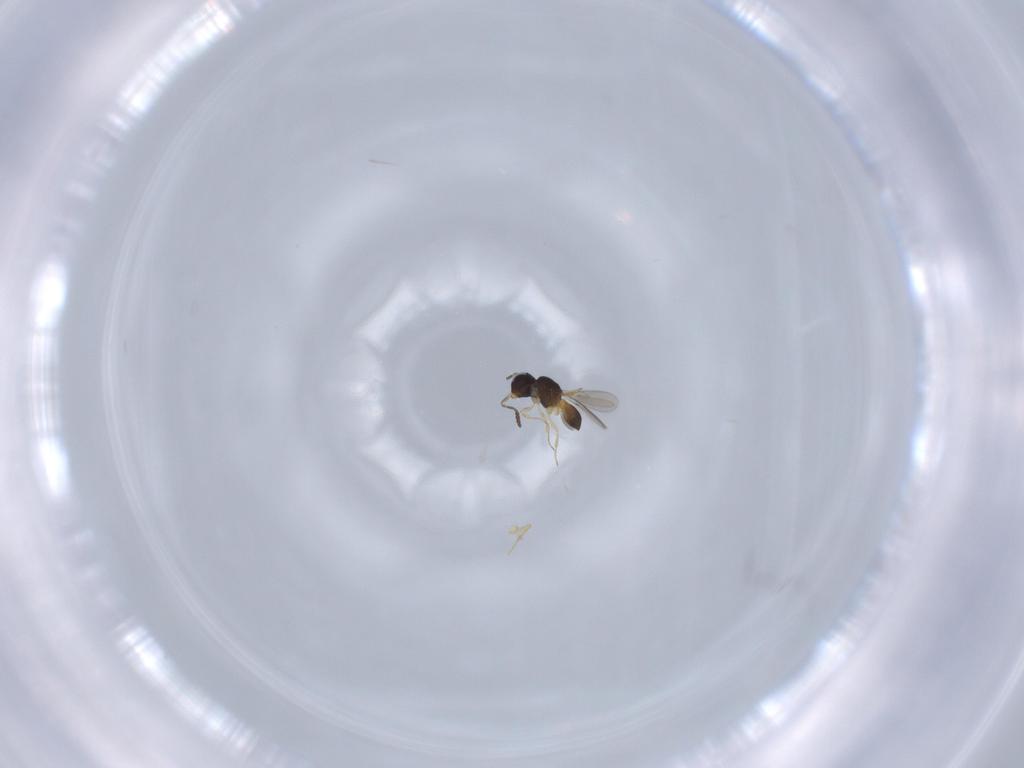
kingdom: Animalia
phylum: Arthropoda
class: Insecta
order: Hymenoptera
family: Scelionidae
